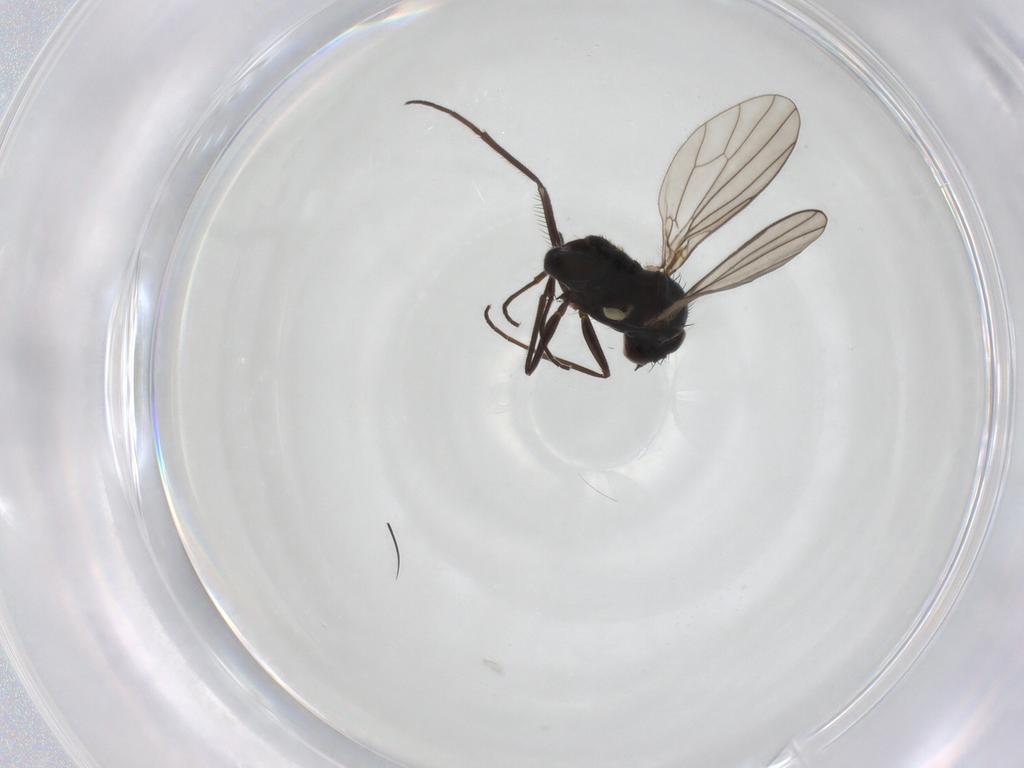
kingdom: Animalia
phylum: Arthropoda
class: Insecta
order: Diptera
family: Dolichopodidae
